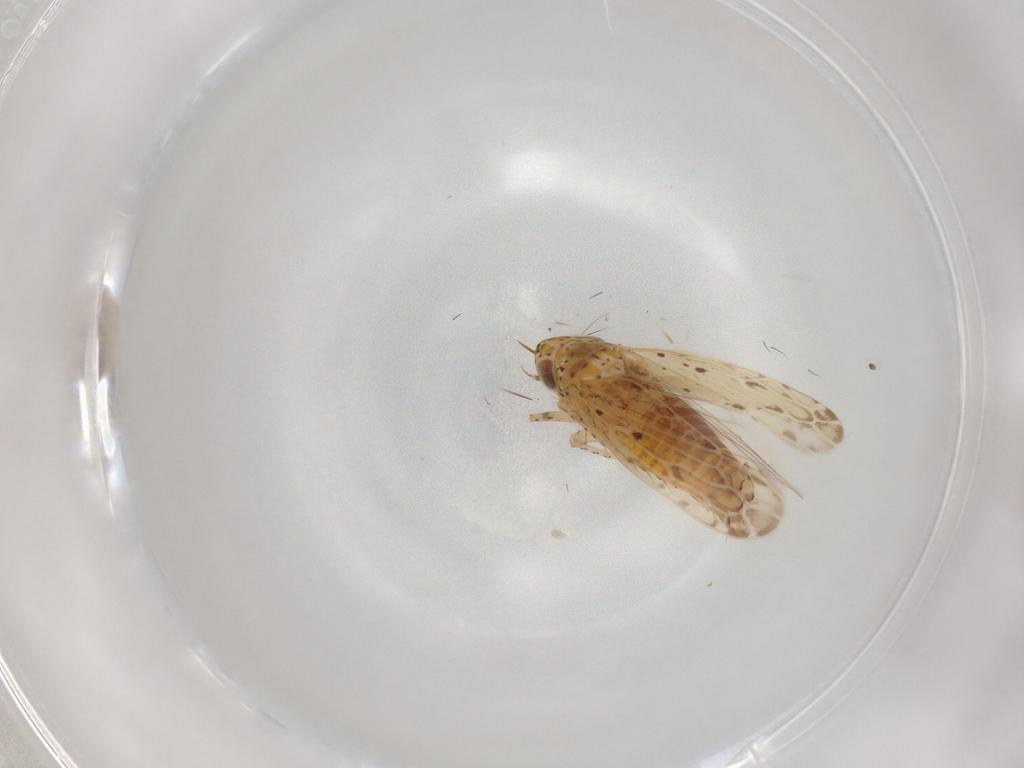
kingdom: Animalia
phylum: Arthropoda
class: Insecta
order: Hemiptera
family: Cicadellidae
